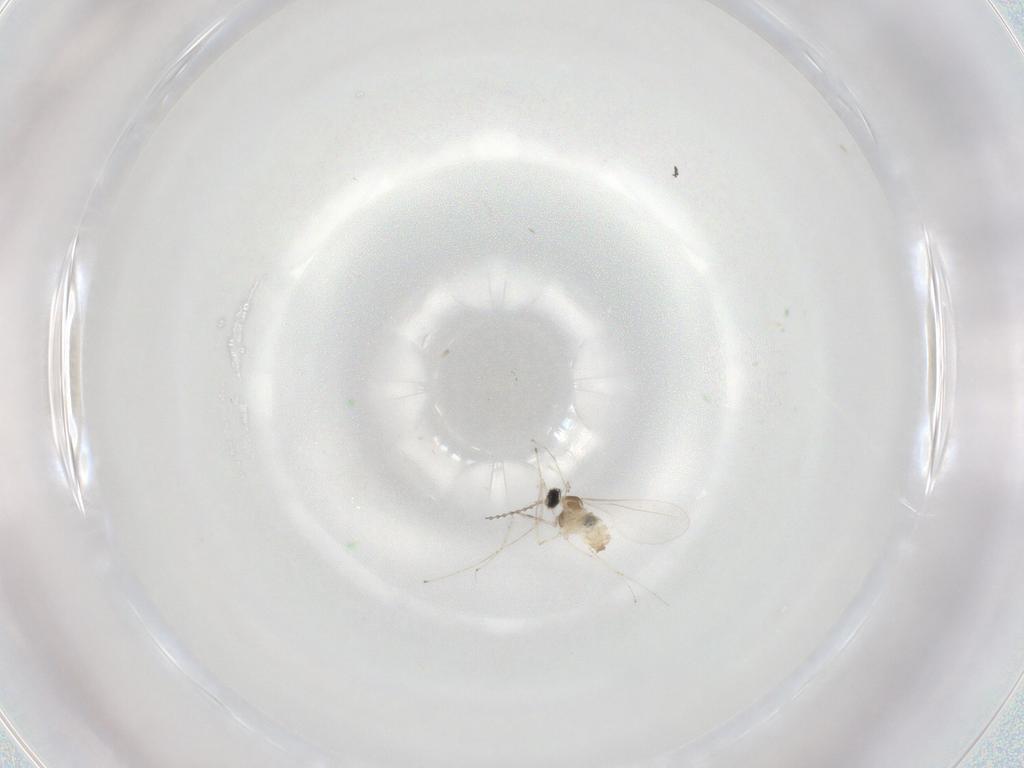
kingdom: Animalia
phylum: Arthropoda
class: Insecta
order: Diptera
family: Cecidomyiidae
